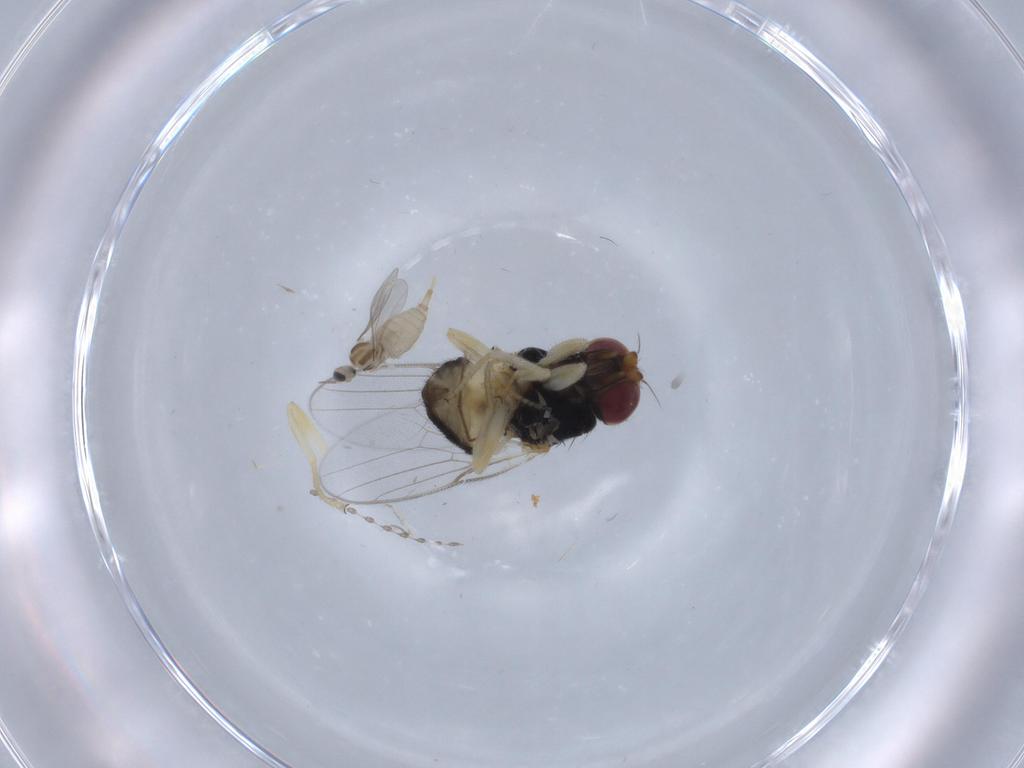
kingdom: Animalia
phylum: Arthropoda
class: Insecta
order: Diptera
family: Chloropidae
